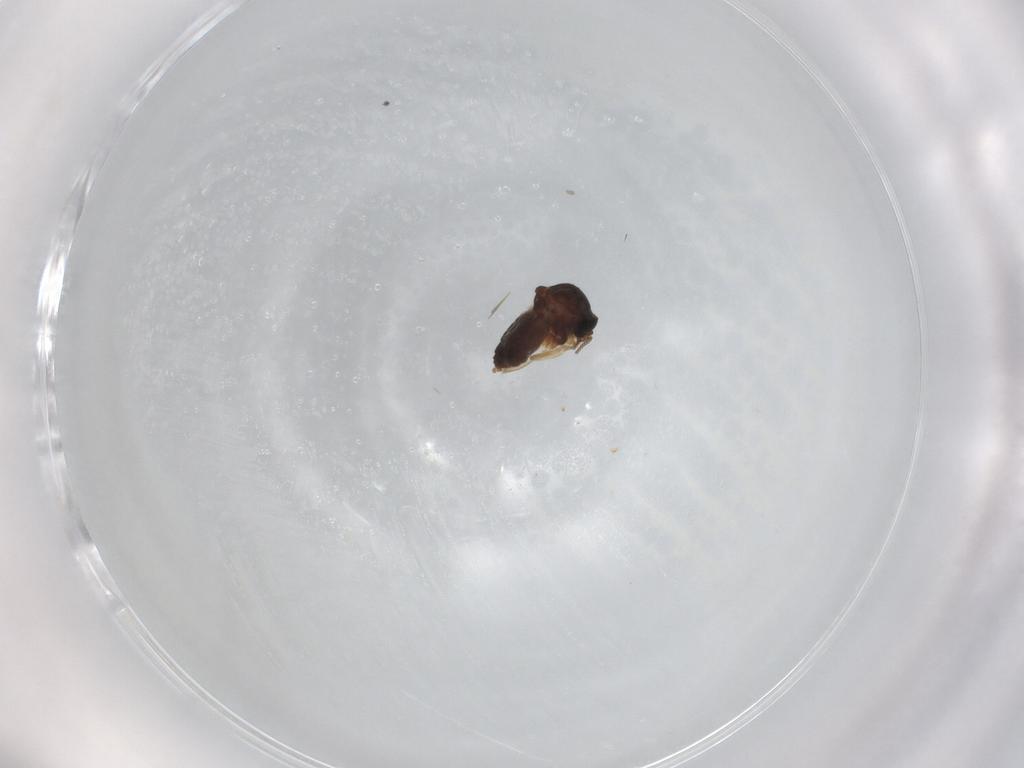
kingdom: Animalia
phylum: Arthropoda
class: Insecta
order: Diptera
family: Ceratopogonidae
